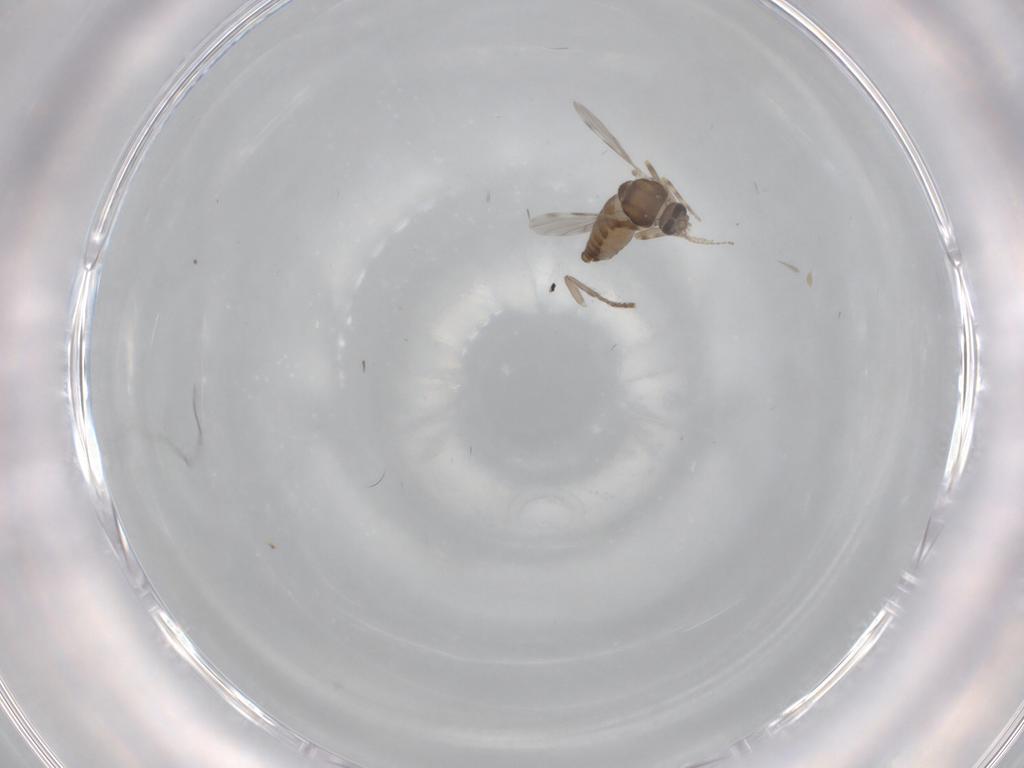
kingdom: Animalia
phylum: Arthropoda
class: Insecta
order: Diptera
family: Ceratopogonidae
